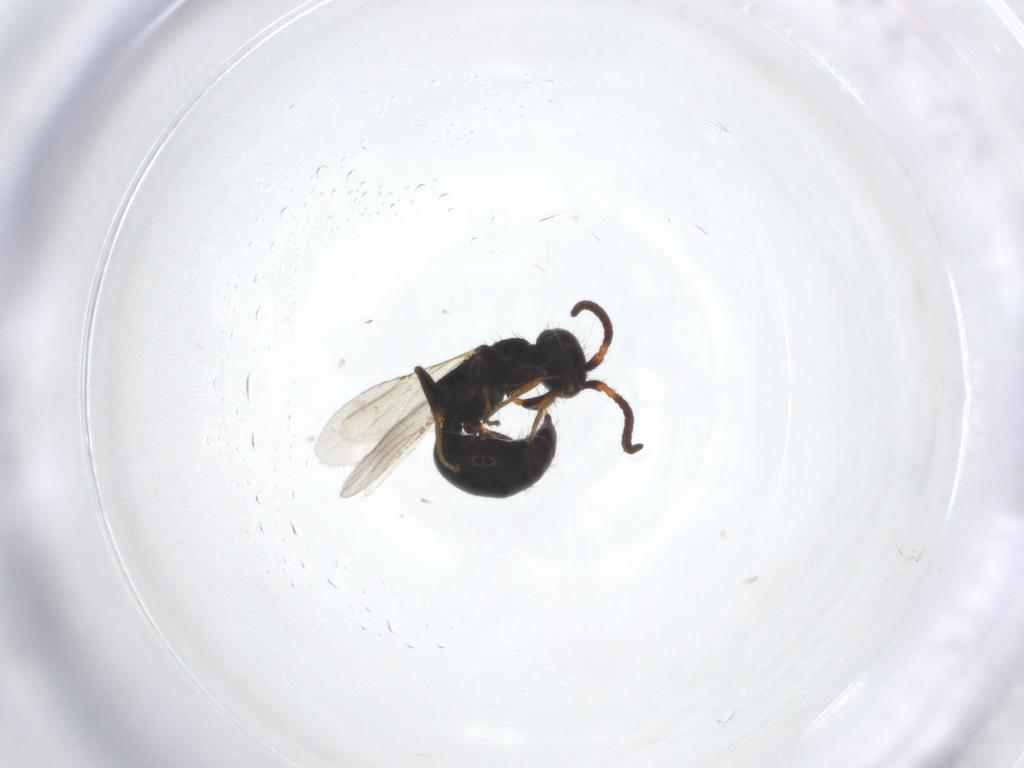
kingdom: Animalia
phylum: Arthropoda
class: Insecta
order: Hymenoptera
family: Bethylidae
